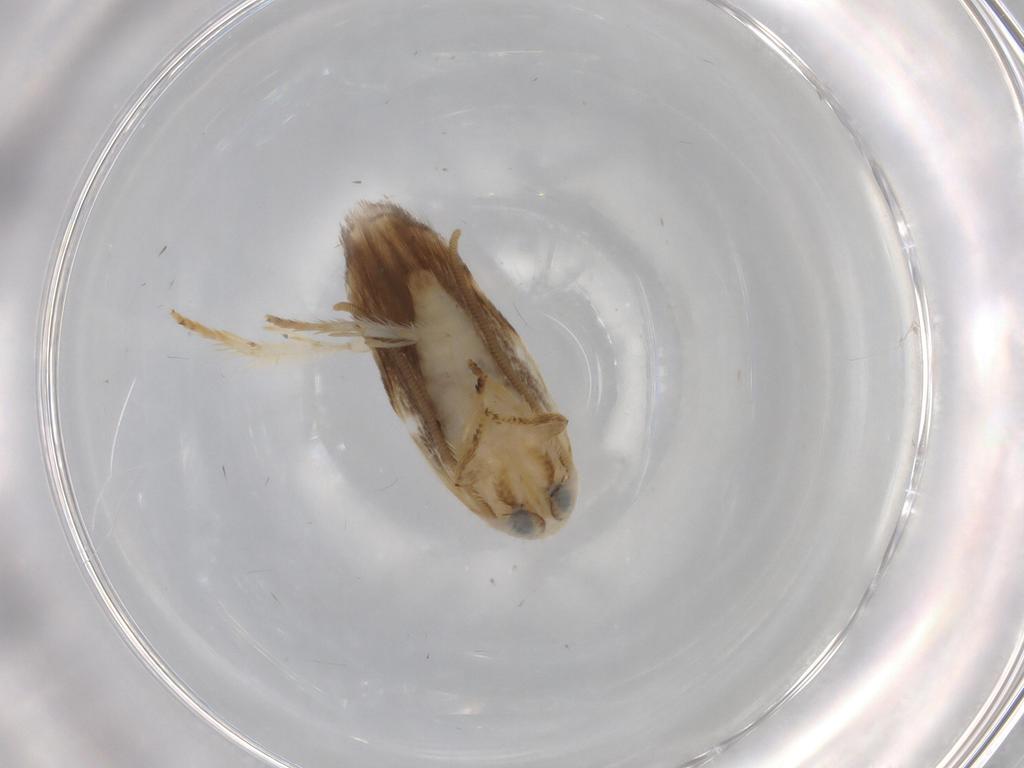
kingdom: Animalia
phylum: Arthropoda
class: Insecta
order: Lepidoptera
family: Opostegidae
